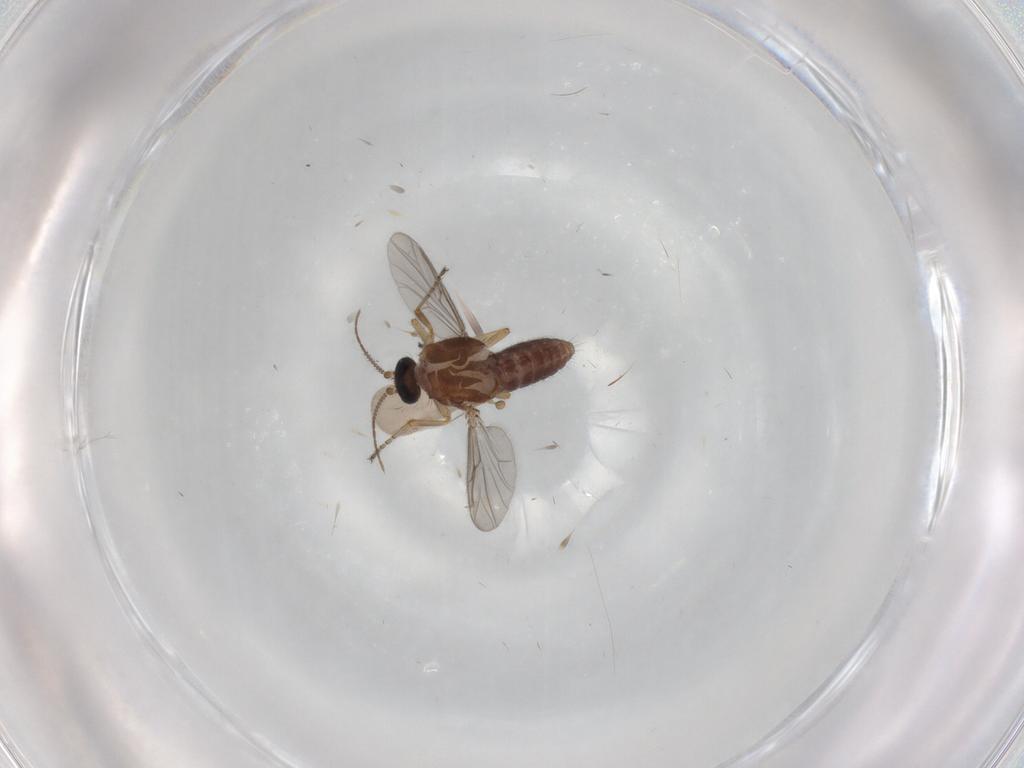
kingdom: Animalia
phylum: Arthropoda
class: Insecta
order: Diptera
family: Ceratopogonidae
